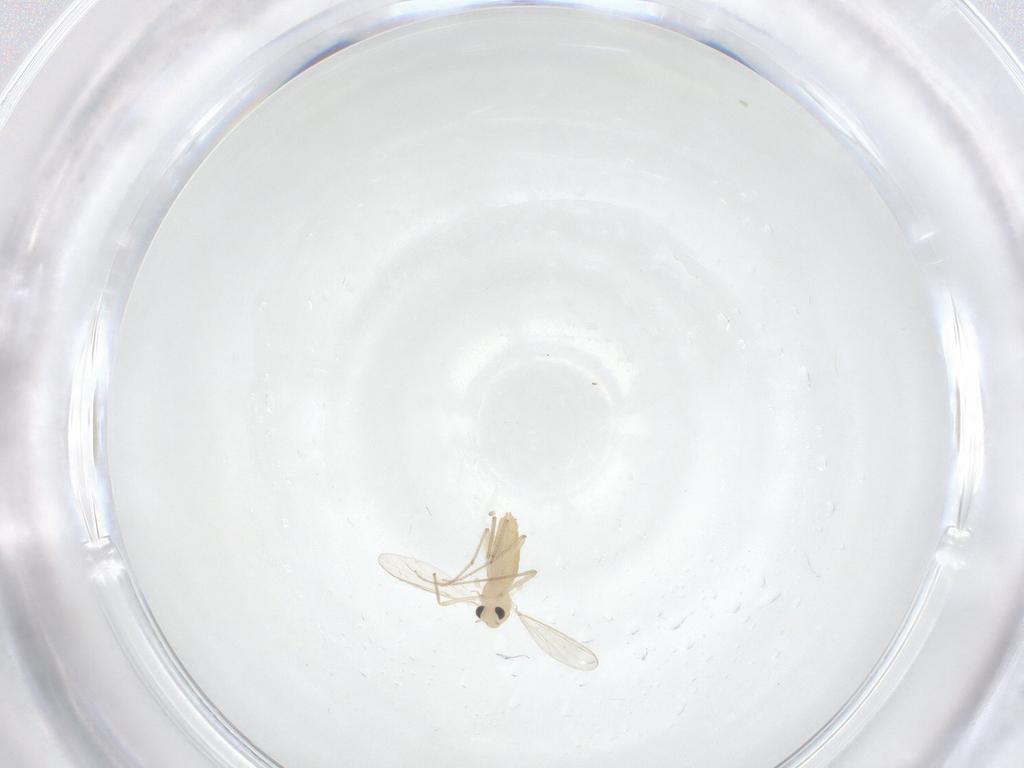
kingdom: Animalia
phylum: Arthropoda
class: Insecta
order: Diptera
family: Chironomidae
